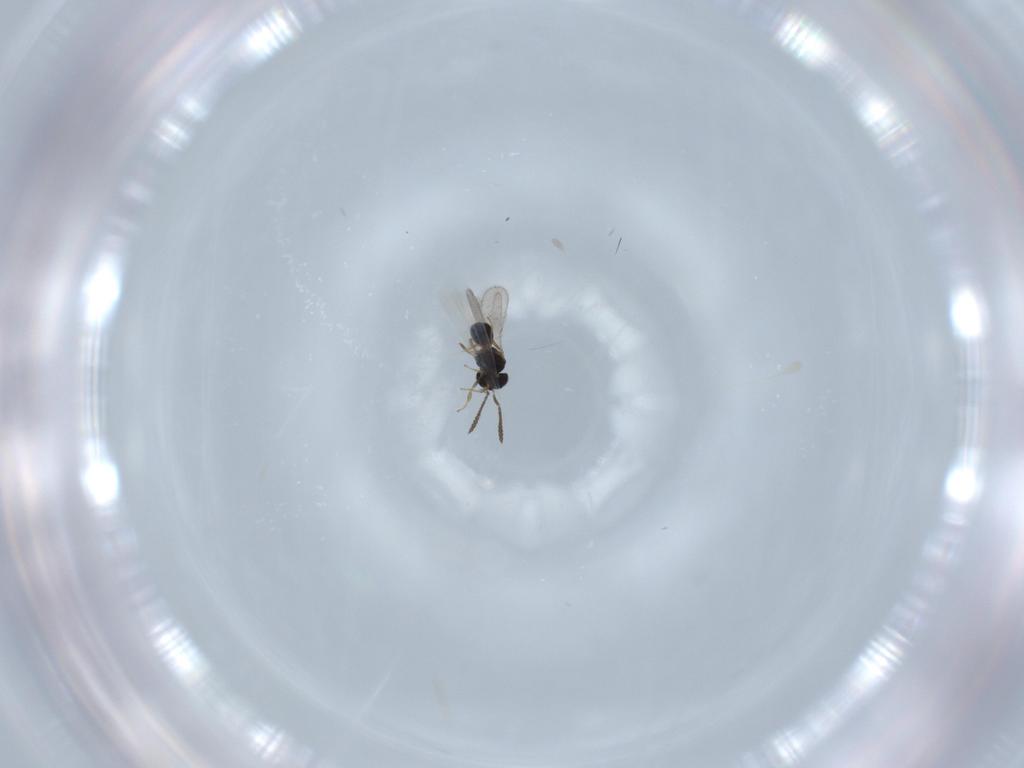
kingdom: Animalia
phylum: Arthropoda
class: Insecta
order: Hymenoptera
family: Scelionidae
